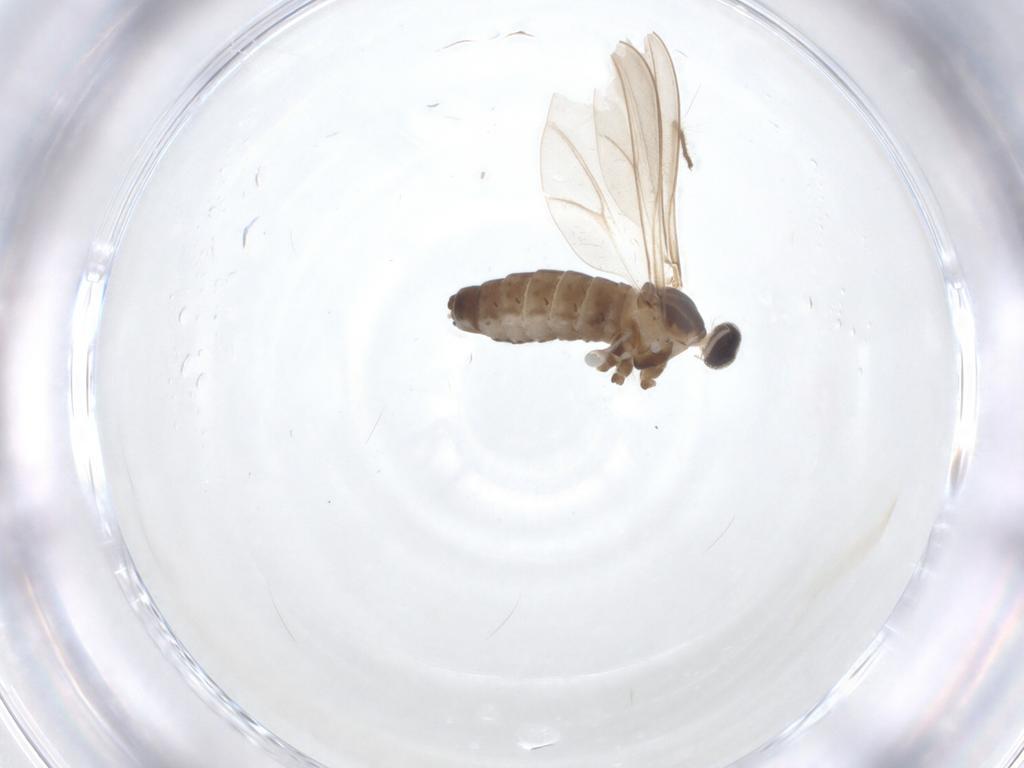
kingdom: Animalia
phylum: Arthropoda
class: Insecta
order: Diptera
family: Cecidomyiidae
